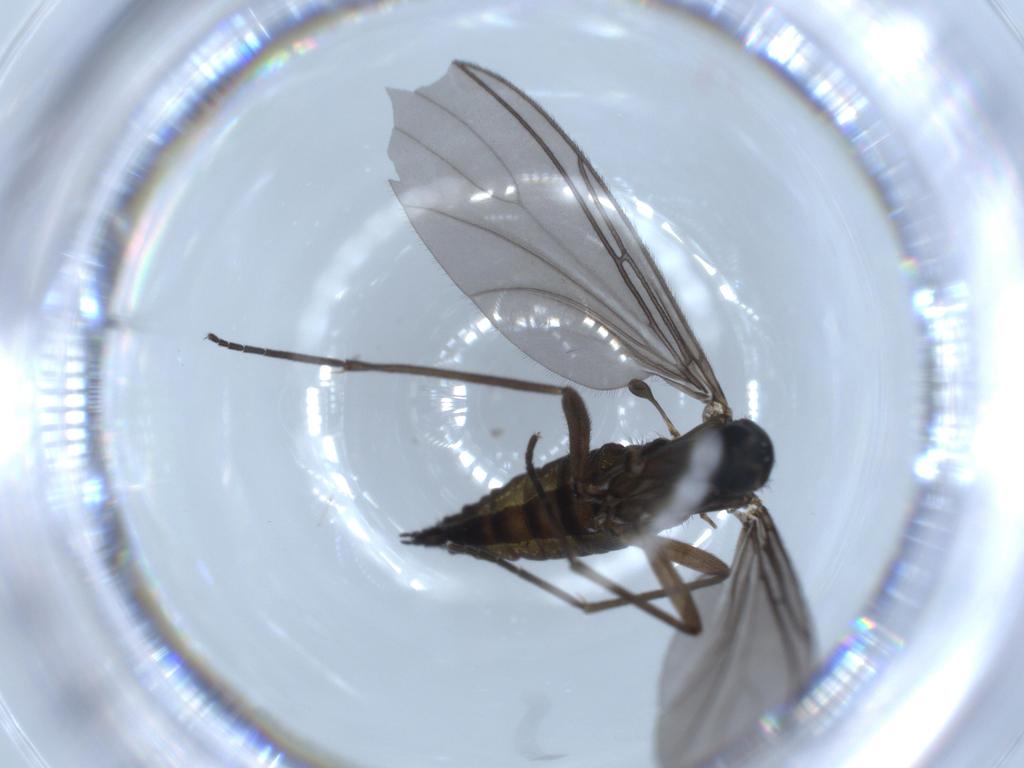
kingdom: Animalia
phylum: Arthropoda
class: Insecta
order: Diptera
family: Sciaridae
